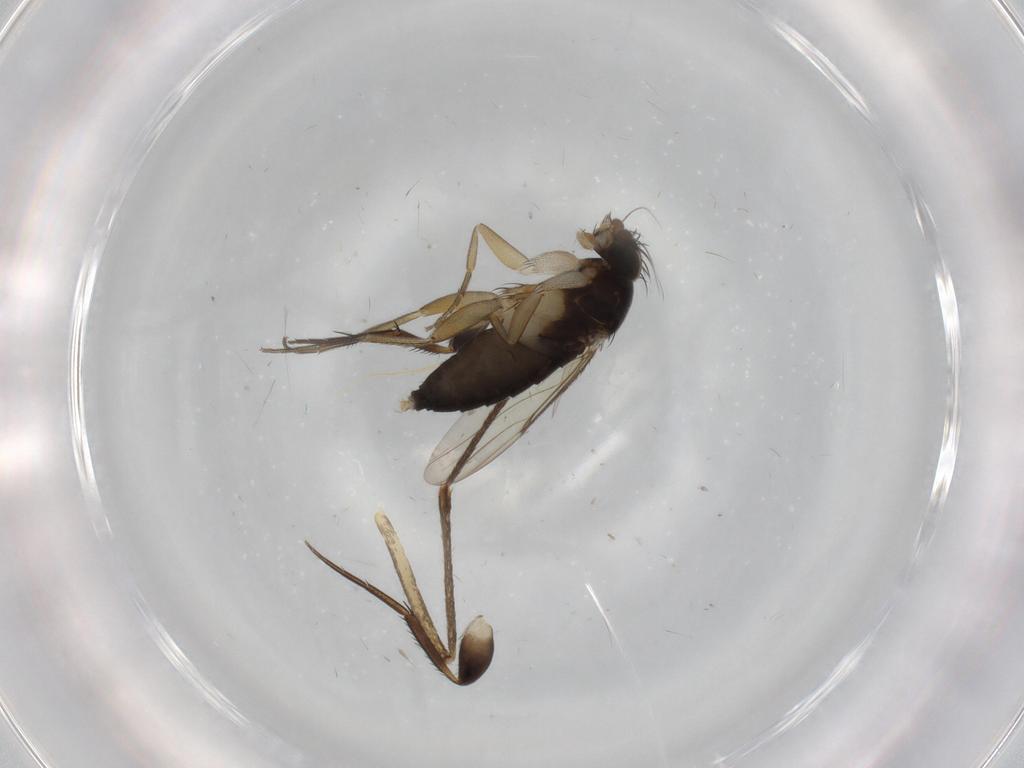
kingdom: Animalia
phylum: Arthropoda
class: Insecta
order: Diptera
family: Phoridae
